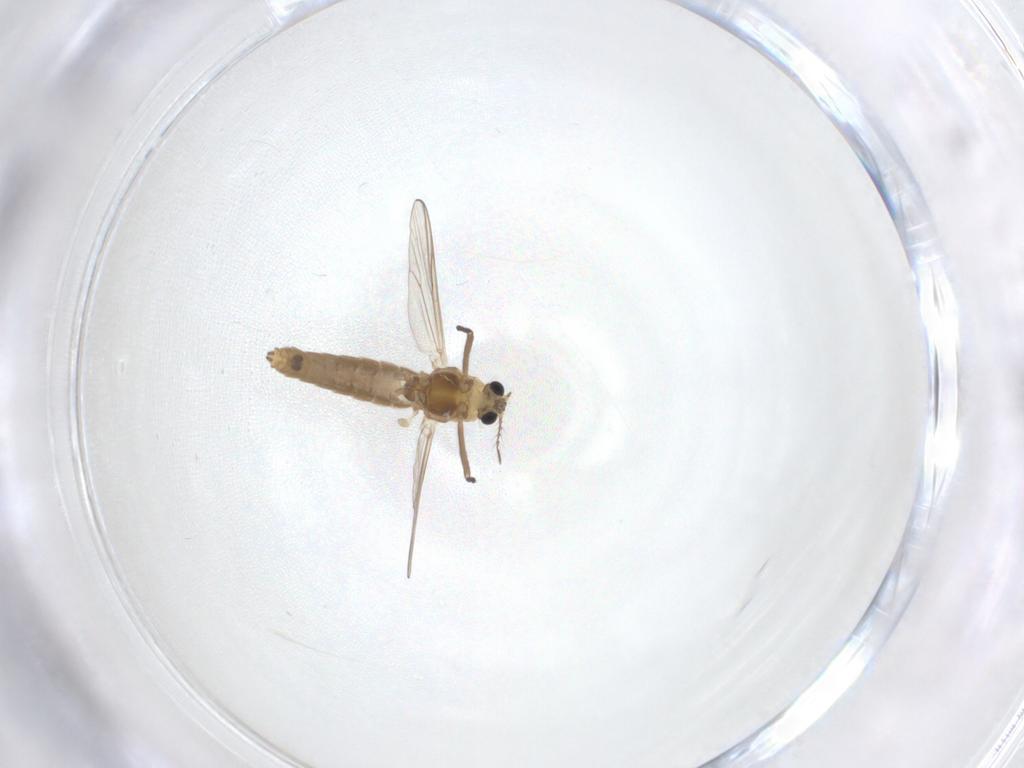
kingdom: Animalia
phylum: Arthropoda
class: Insecta
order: Diptera
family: Chironomidae
